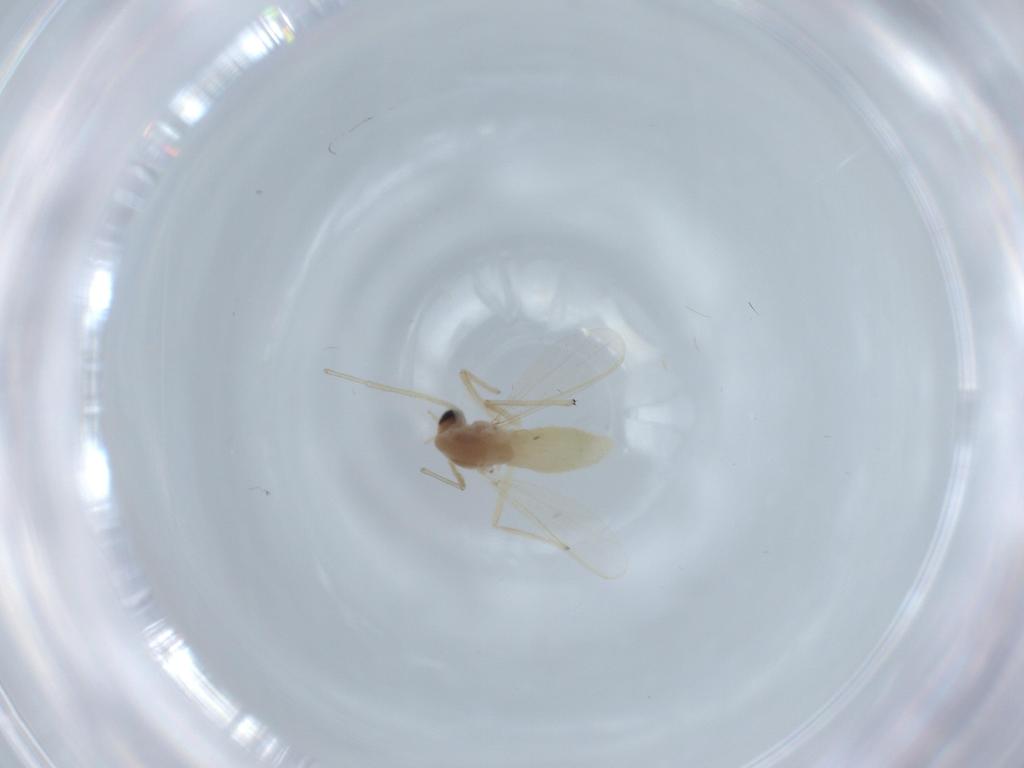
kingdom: Animalia
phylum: Arthropoda
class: Insecta
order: Diptera
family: Chironomidae
